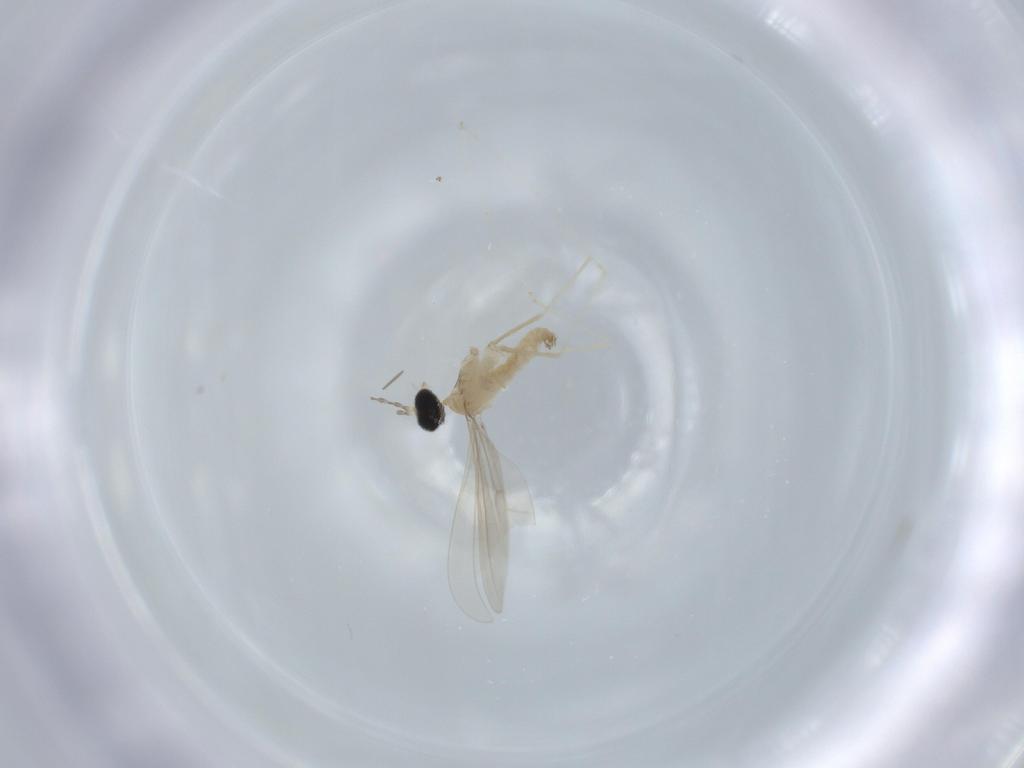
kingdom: Animalia
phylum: Arthropoda
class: Insecta
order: Diptera
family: Cecidomyiidae
